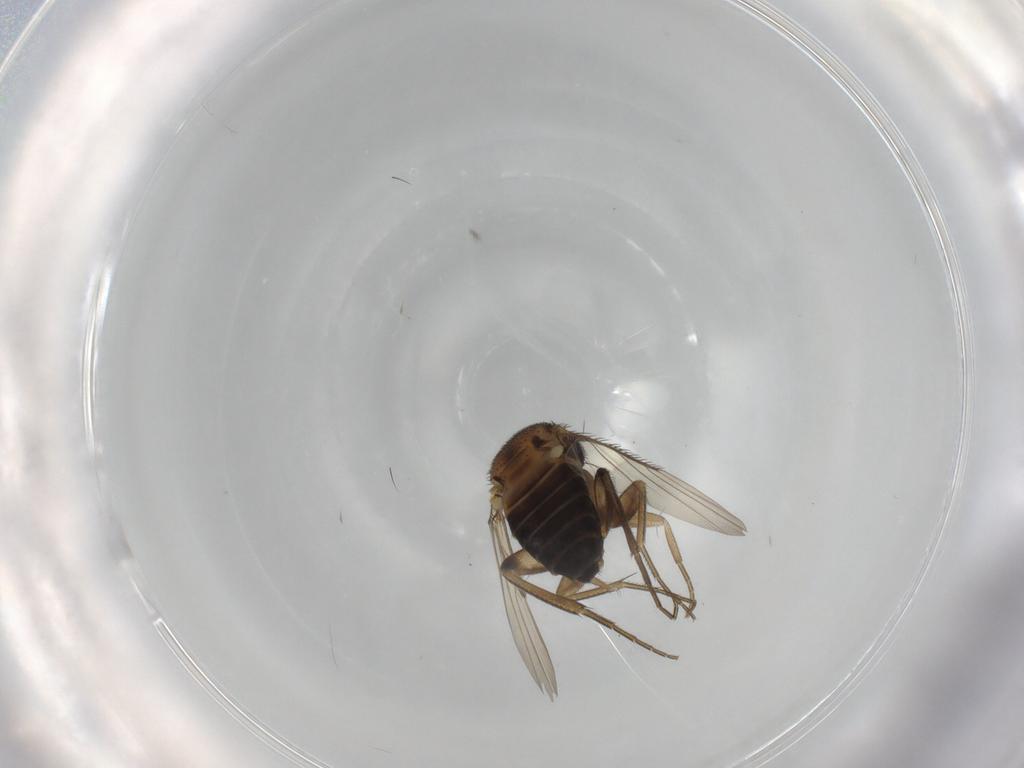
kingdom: Animalia
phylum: Arthropoda
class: Insecta
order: Diptera
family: Phoridae
